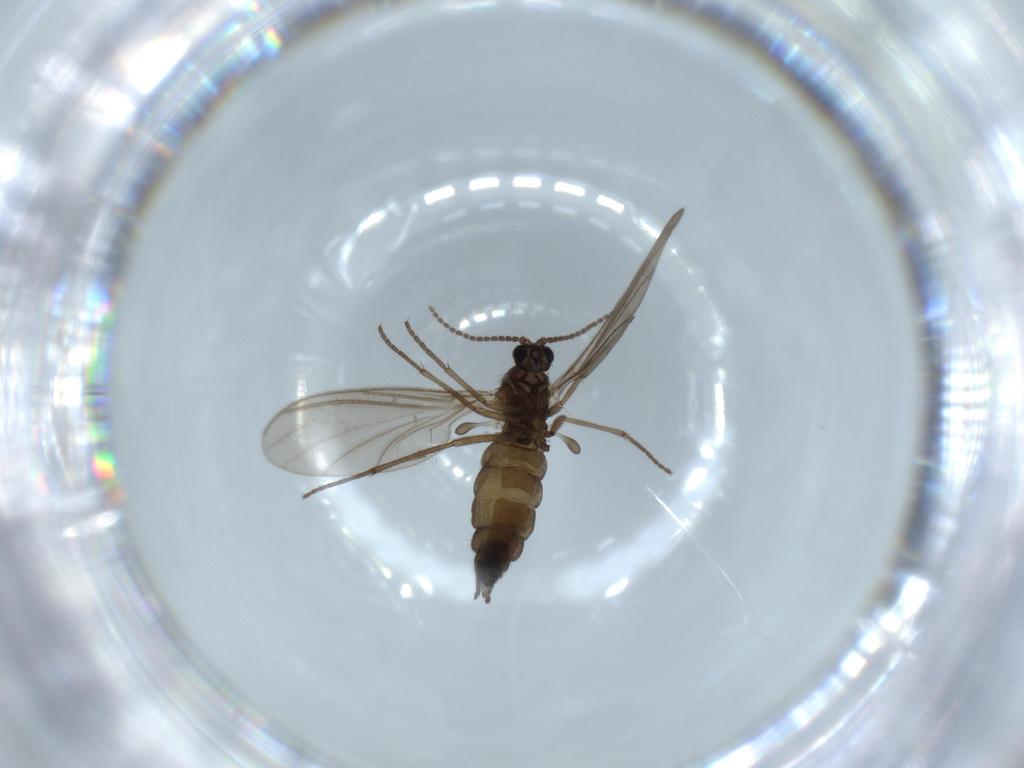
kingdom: Animalia
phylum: Arthropoda
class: Insecta
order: Diptera
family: Sciaridae
